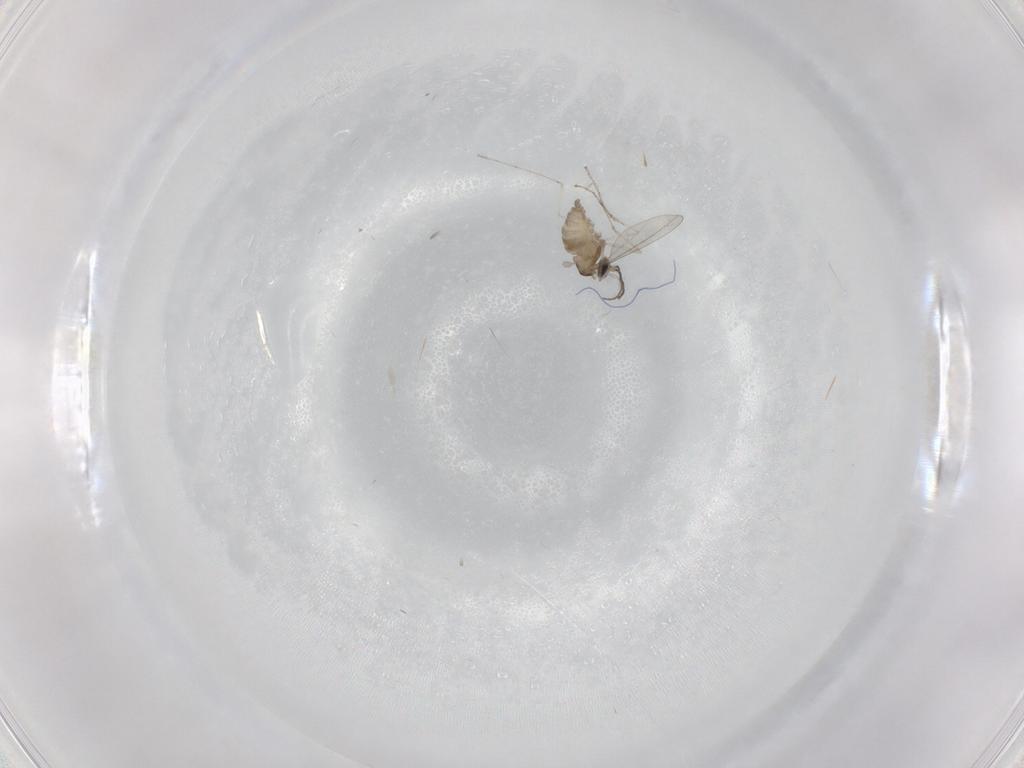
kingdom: Animalia
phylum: Arthropoda
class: Insecta
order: Diptera
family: Cecidomyiidae
